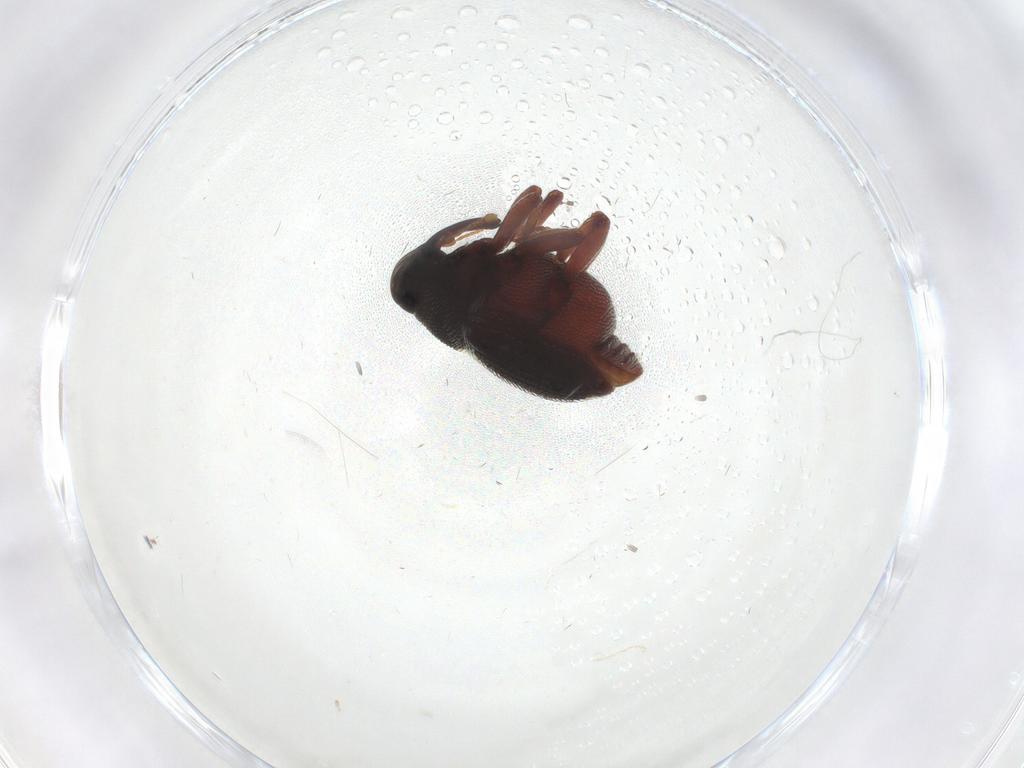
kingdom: Animalia
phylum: Arthropoda
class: Insecta
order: Coleoptera
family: Curculionidae
